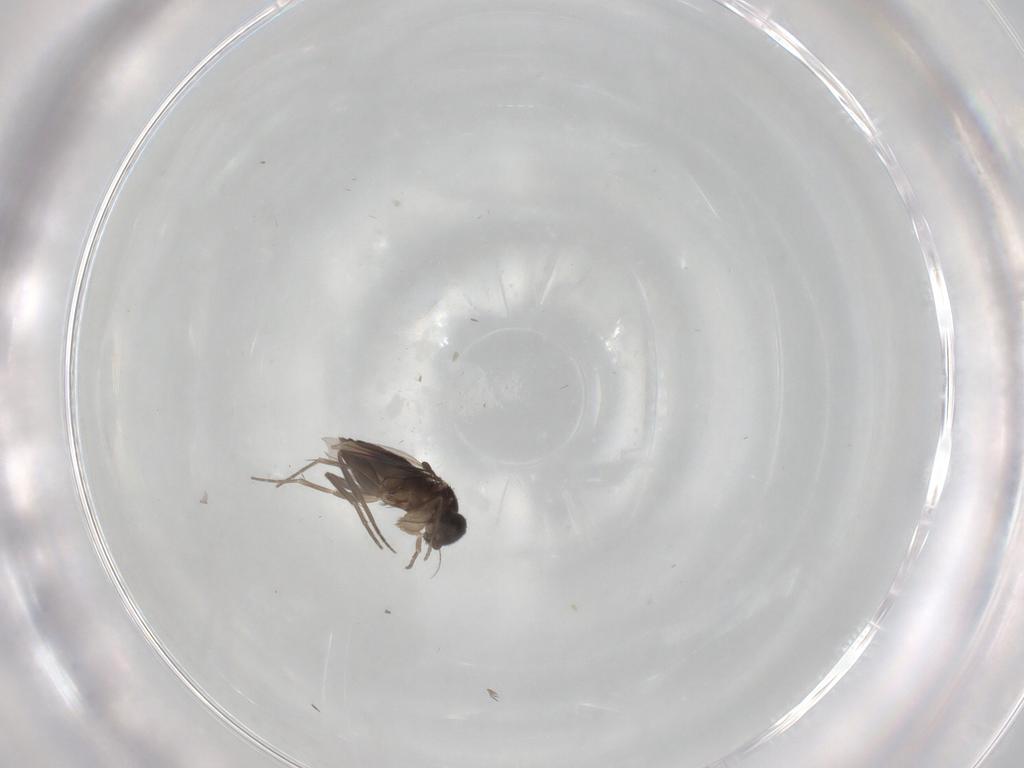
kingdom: Animalia
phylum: Arthropoda
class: Insecta
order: Diptera
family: Phoridae
